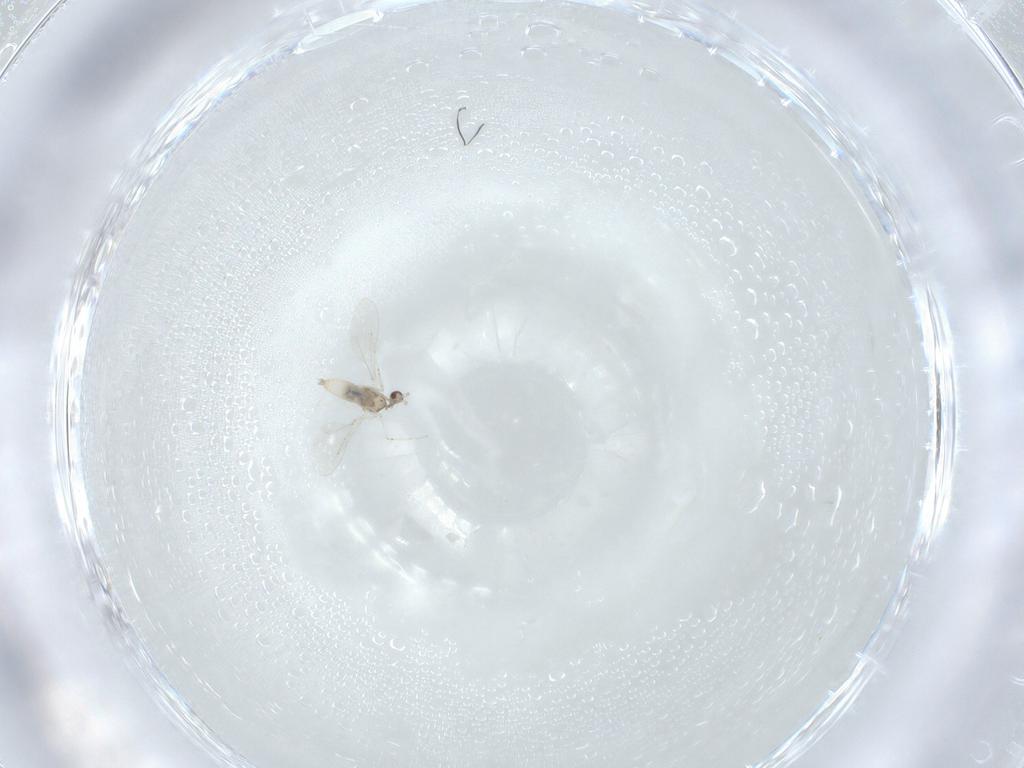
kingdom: Animalia
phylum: Arthropoda
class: Insecta
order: Diptera
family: Cecidomyiidae
